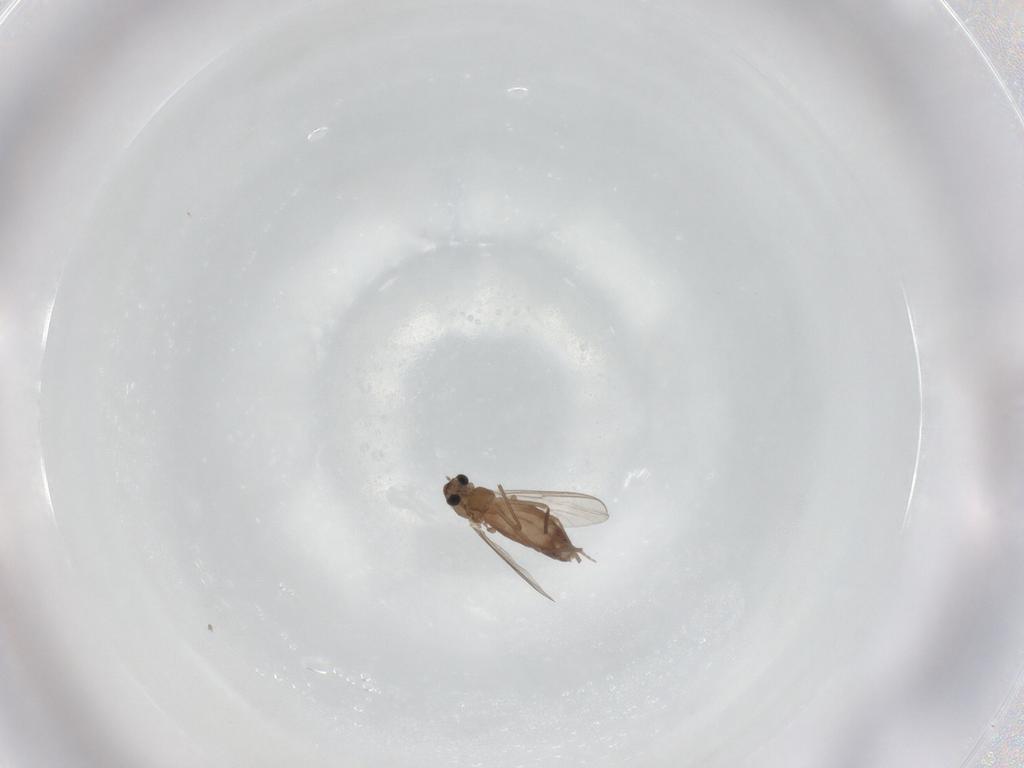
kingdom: Animalia
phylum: Arthropoda
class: Insecta
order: Diptera
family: Chironomidae
